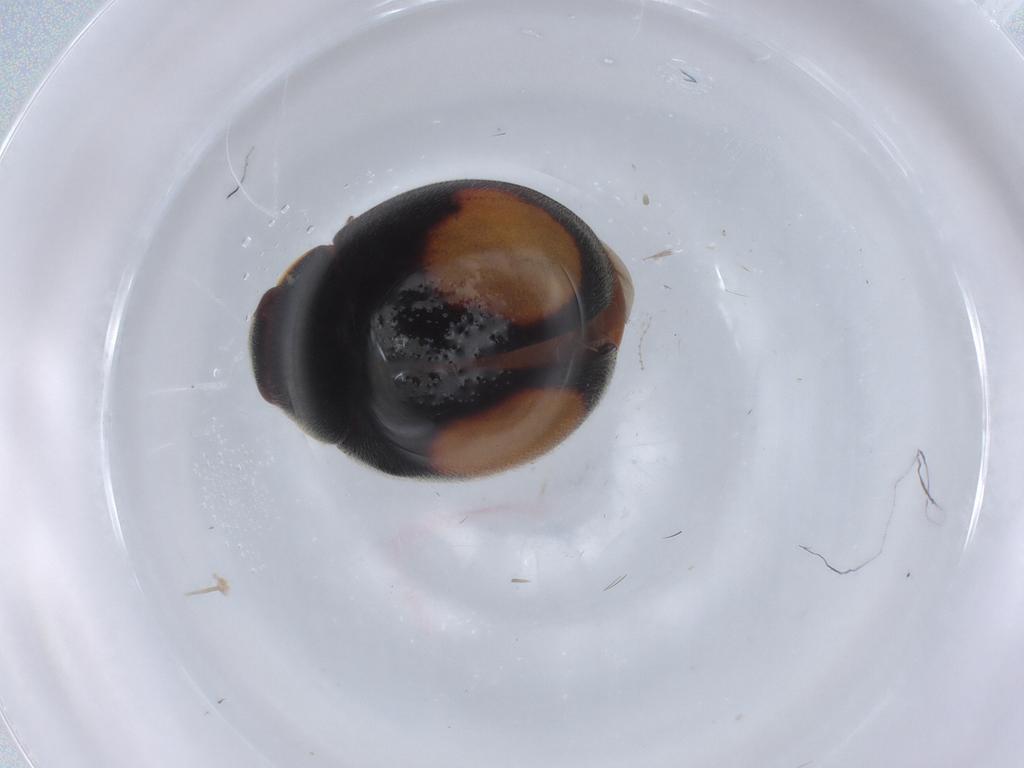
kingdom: Animalia
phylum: Arthropoda
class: Insecta
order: Coleoptera
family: Coccinellidae
